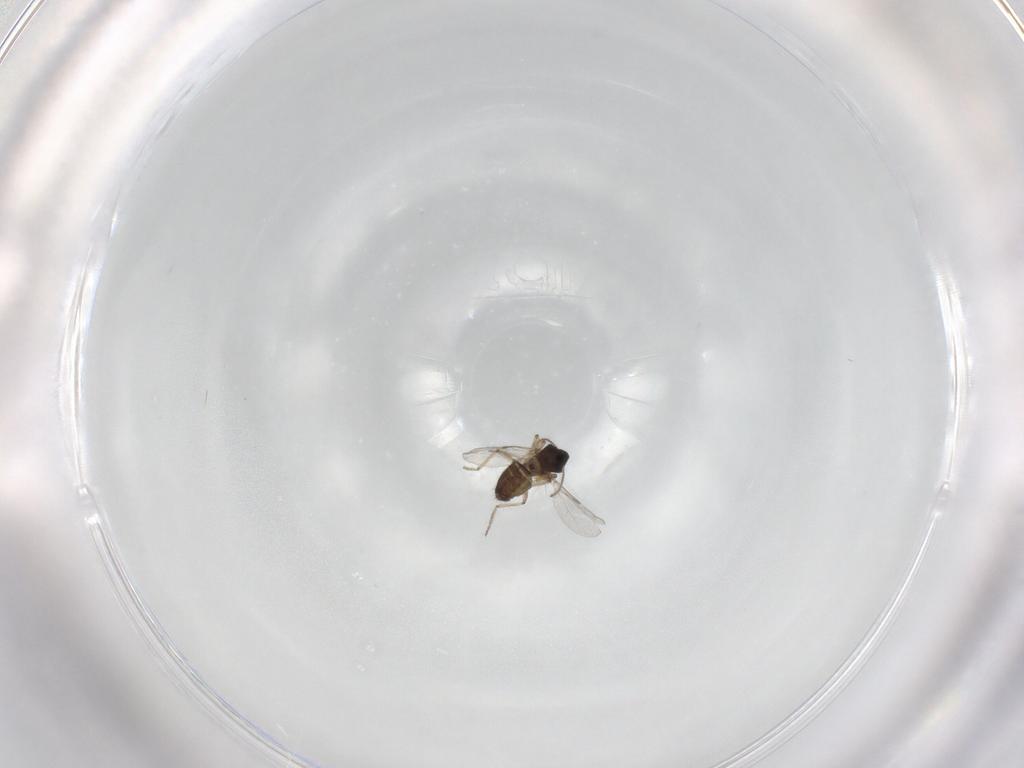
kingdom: Animalia
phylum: Arthropoda
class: Insecta
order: Diptera
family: Ceratopogonidae
